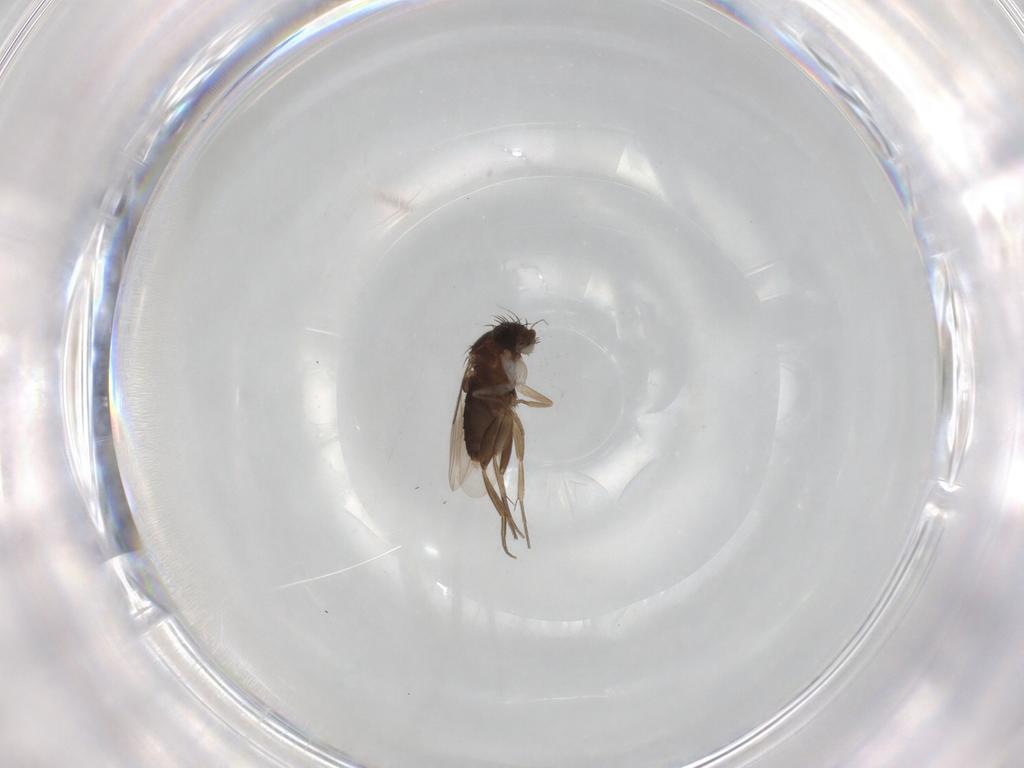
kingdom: Animalia
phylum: Arthropoda
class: Insecta
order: Diptera
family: Phoridae
